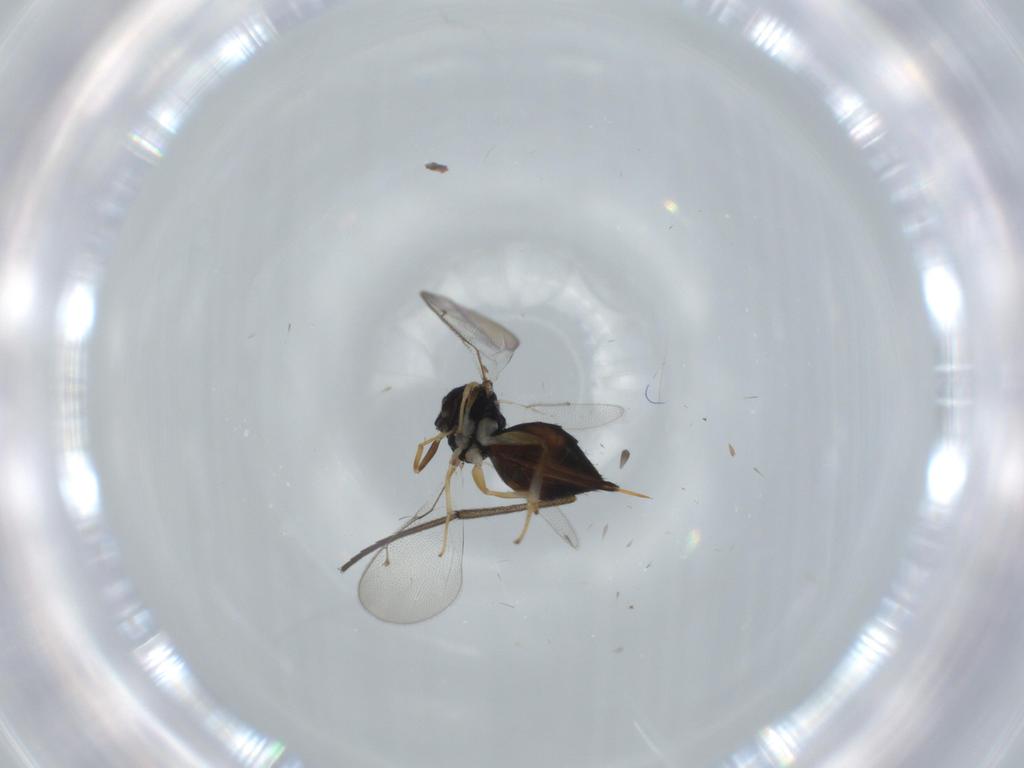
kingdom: Animalia
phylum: Arthropoda
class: Insecta
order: Hymenoptera
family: Pteromalidae
